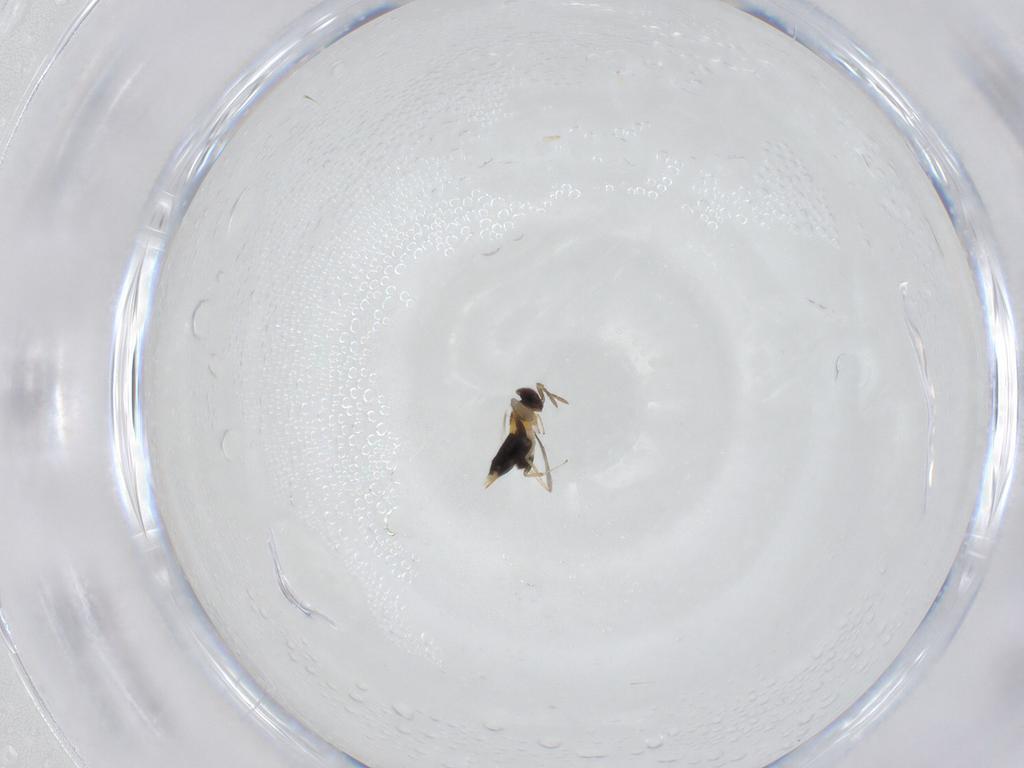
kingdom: Animalia
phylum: Arthropoda
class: Insecta
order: Hymenoptera
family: Aphelinidae
